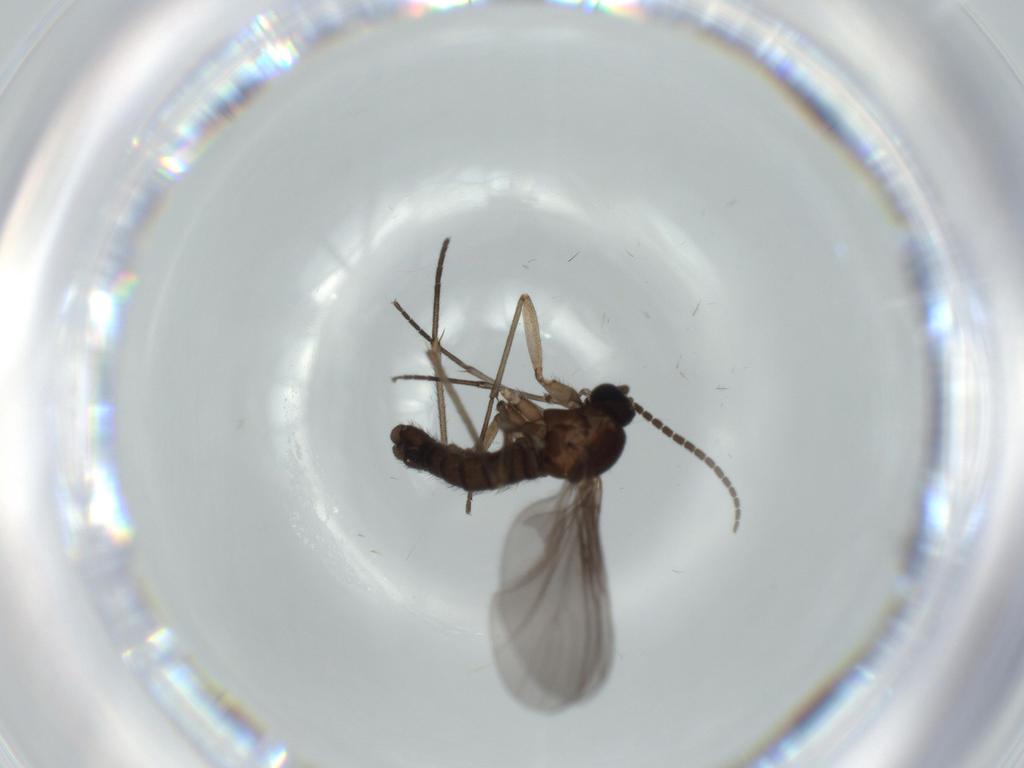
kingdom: Animalia
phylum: Arthropoda
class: Insecta
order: Diptera
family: Sciaridae
